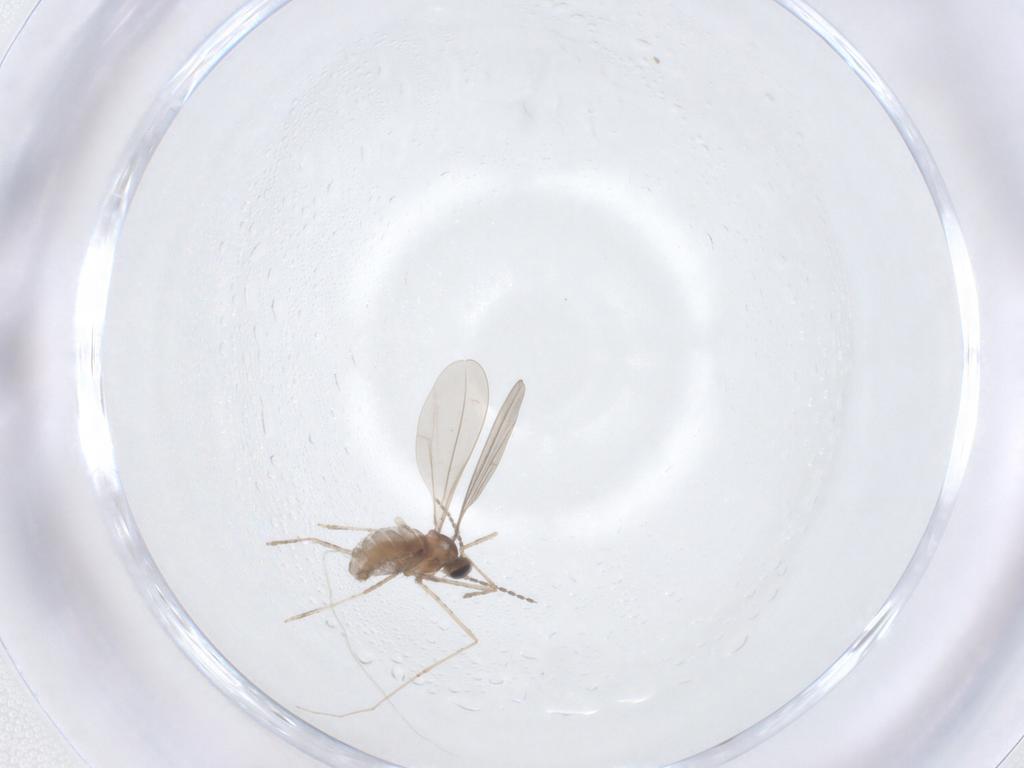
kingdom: Animalia
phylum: Arthropoda
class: Insecta
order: Diptera
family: Cecidomyiidae
